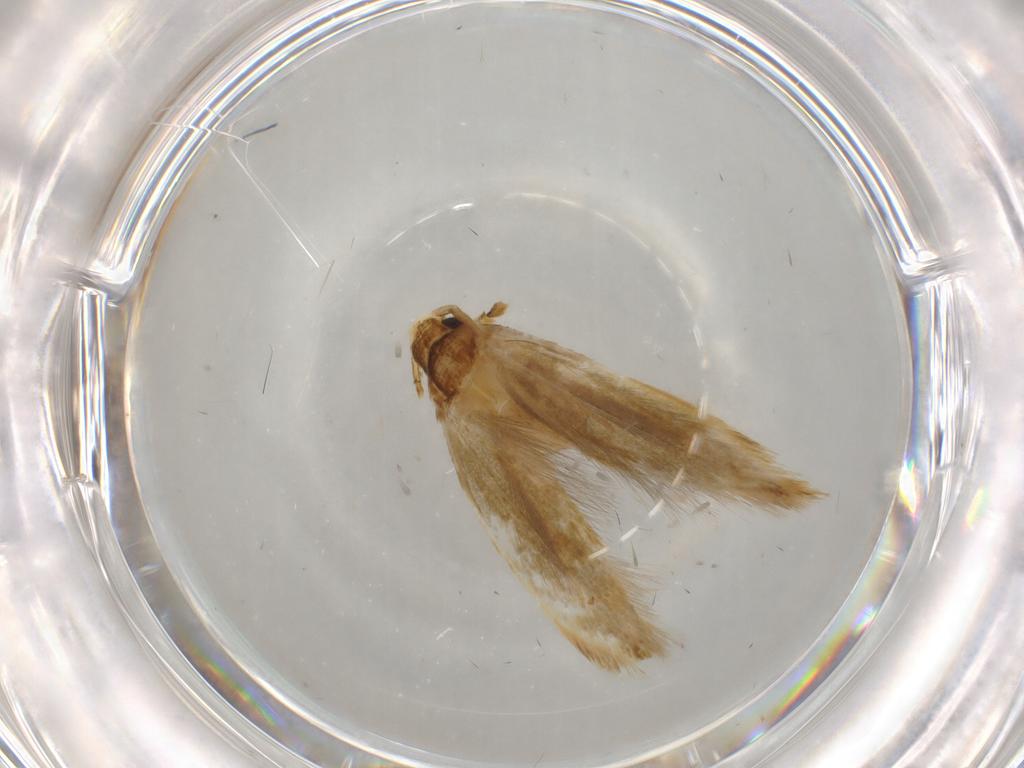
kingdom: Animalia
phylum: Arthropoda
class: Insecta
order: Lepidoptera
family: Tineidae
